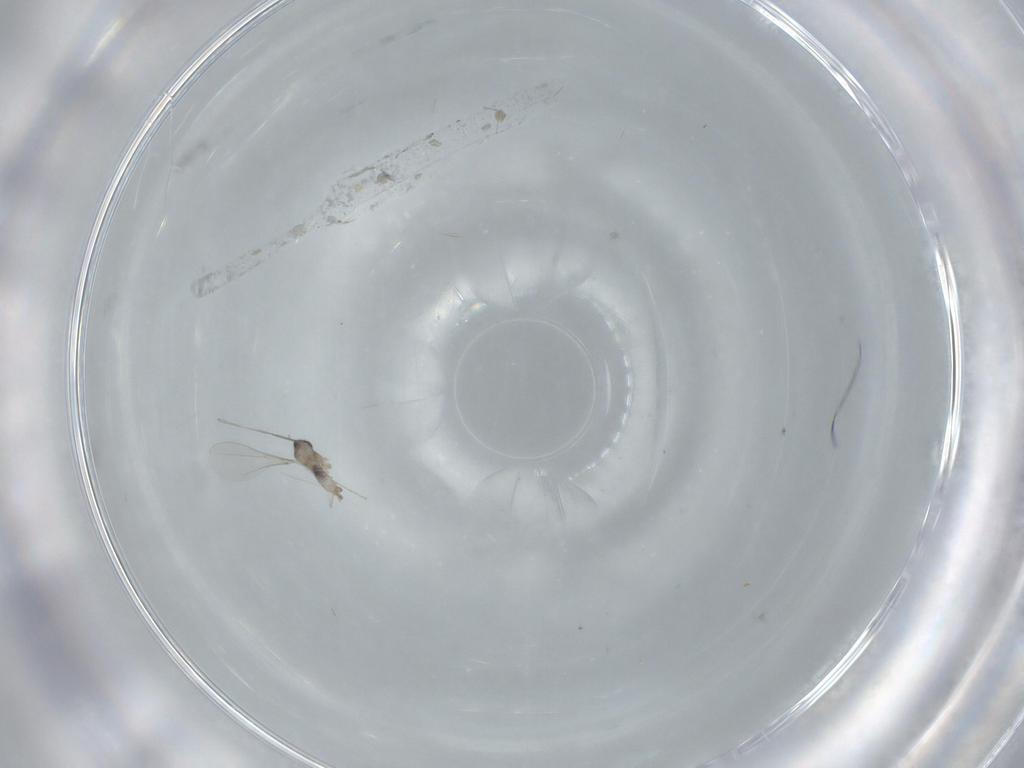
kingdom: Animalia
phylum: Arthropoda
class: Insecta
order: Diptera
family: Cecidomyiidae
